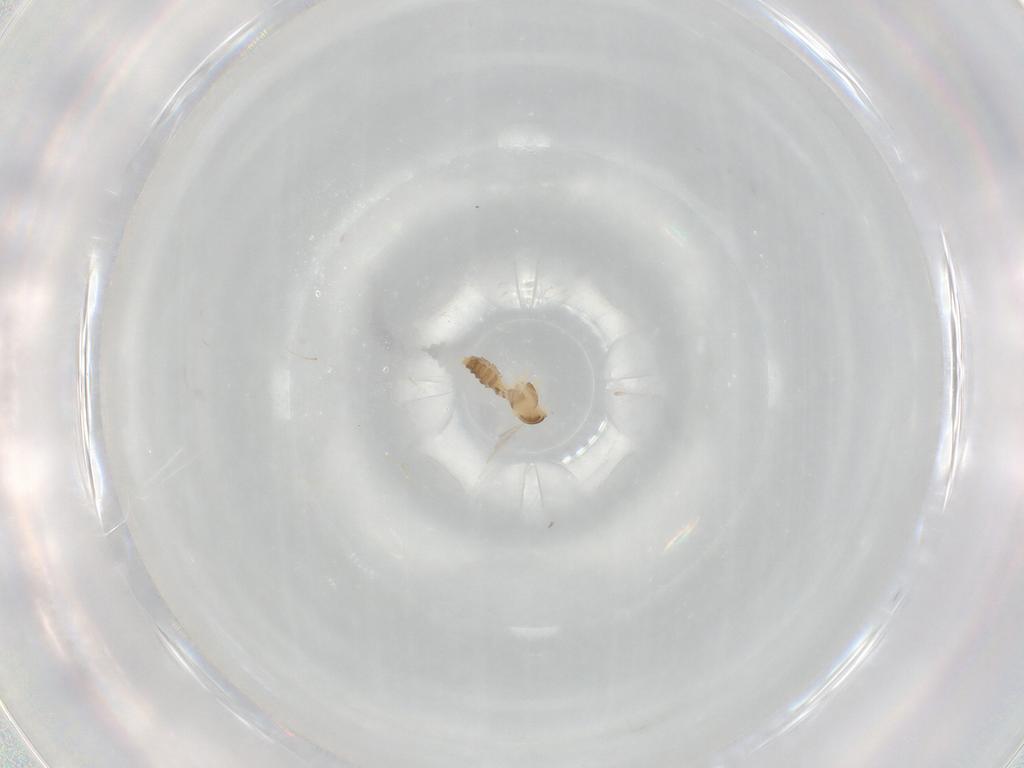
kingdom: Animalia
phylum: Arthropoda
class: Insecta
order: Diptera
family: Cecidomyiidae
